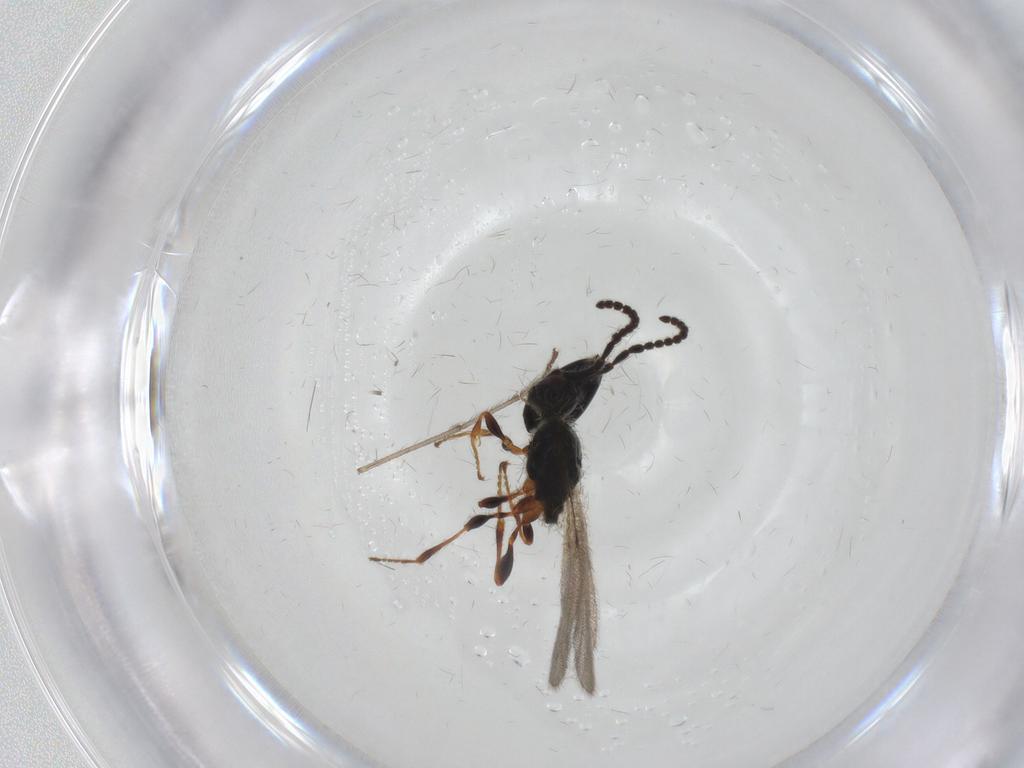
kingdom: Animalia
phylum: Arthropoda
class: Insecta
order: Hymenoptera
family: Diapriidae
